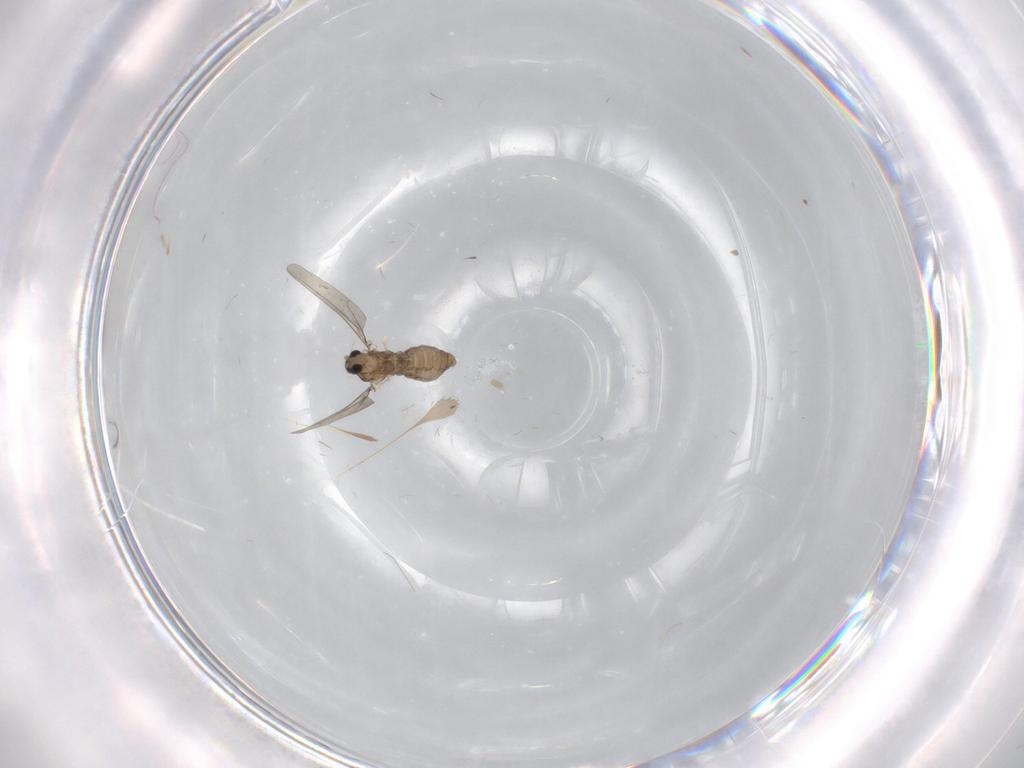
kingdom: Animalia
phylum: Arthropoda
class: Insecta
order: Diptera
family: Cecidomyiidae
